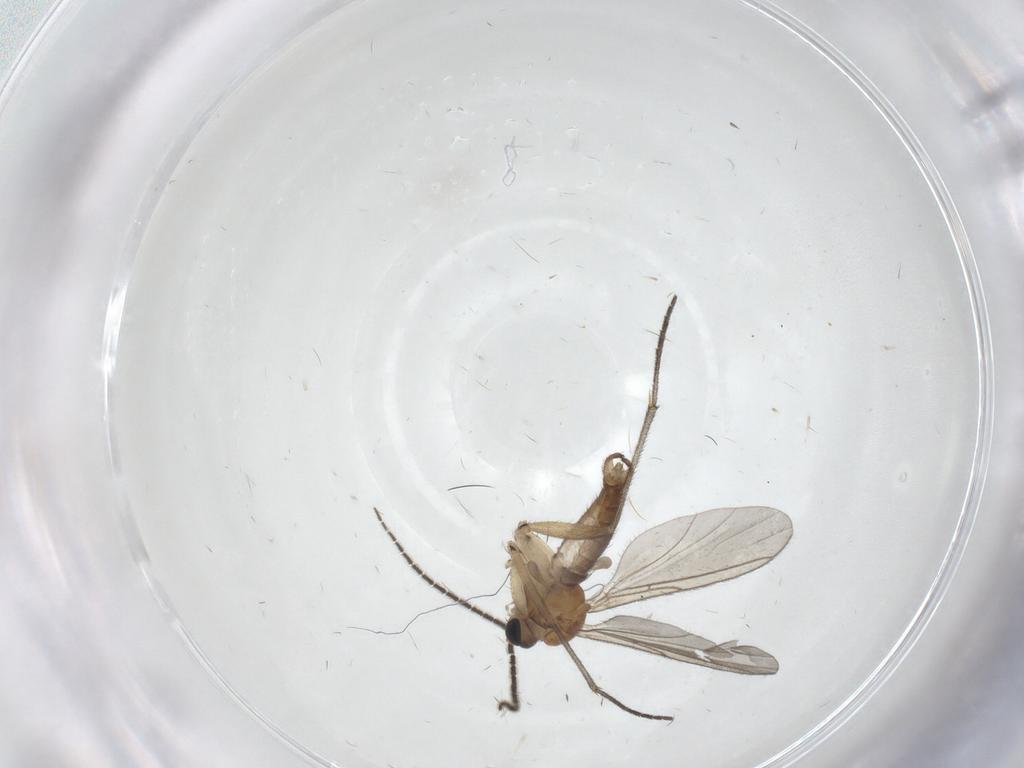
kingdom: Animalia
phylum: Arthropoda
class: Insecta
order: Diptera
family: Sciaridae
